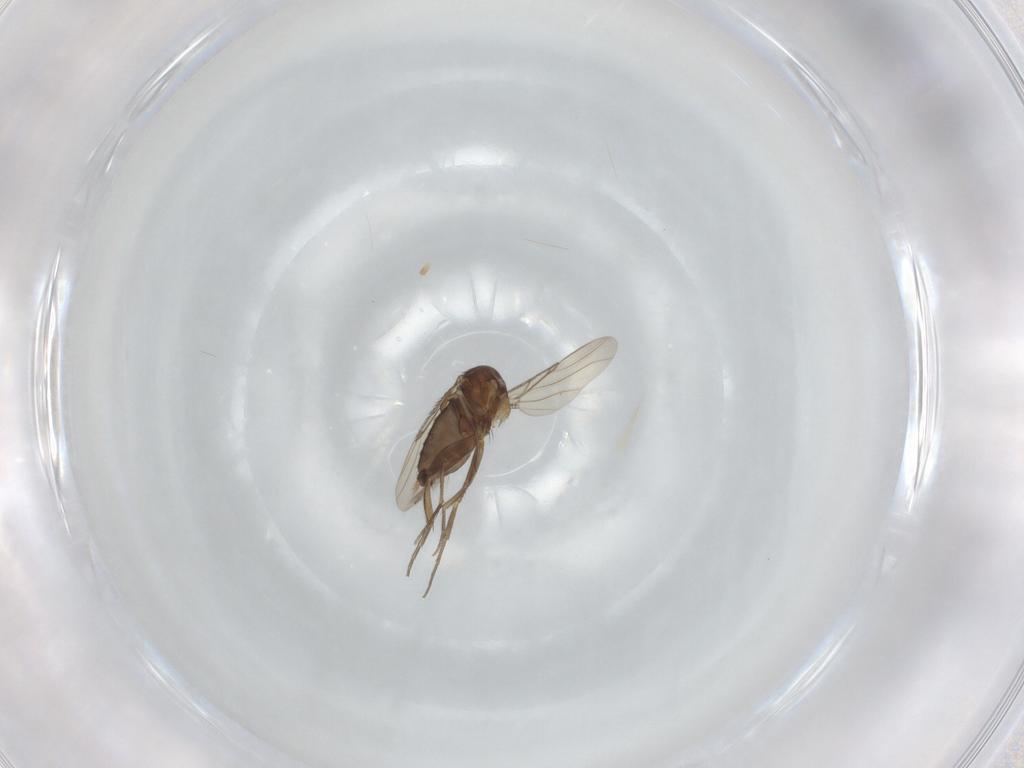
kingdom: Animalia
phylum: Arthropoda
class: Insecta
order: Diptera
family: Phoridae
